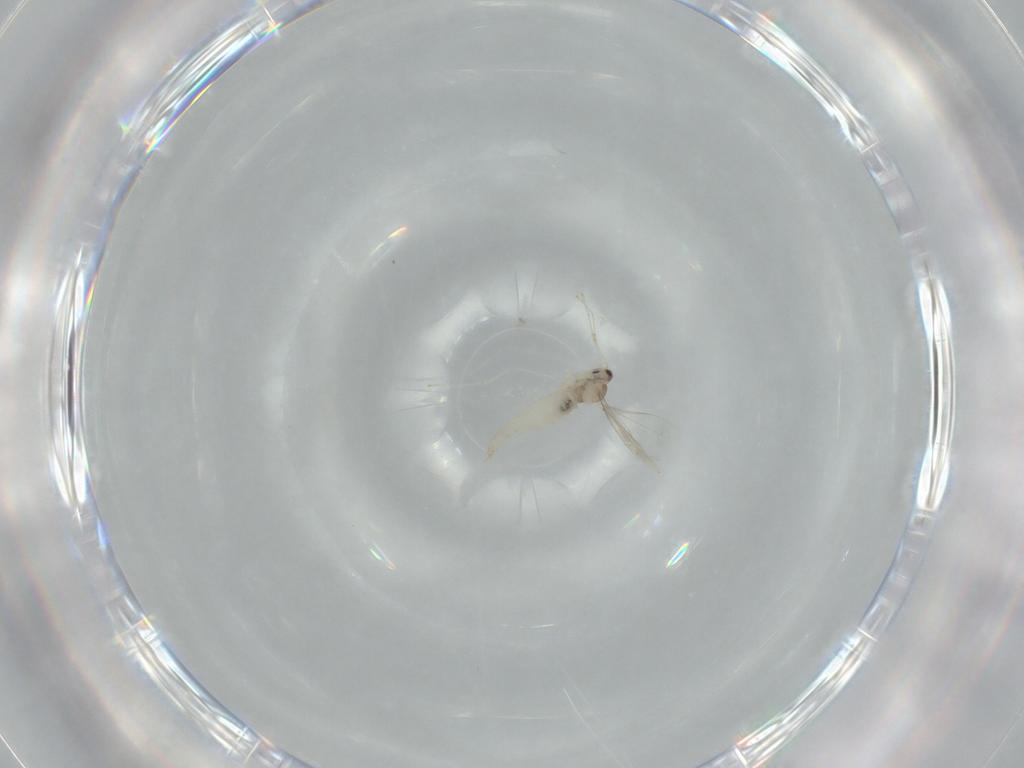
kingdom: Animalia
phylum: Arthropoda
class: Insecta
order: Diptera
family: Cecidomyiidae
